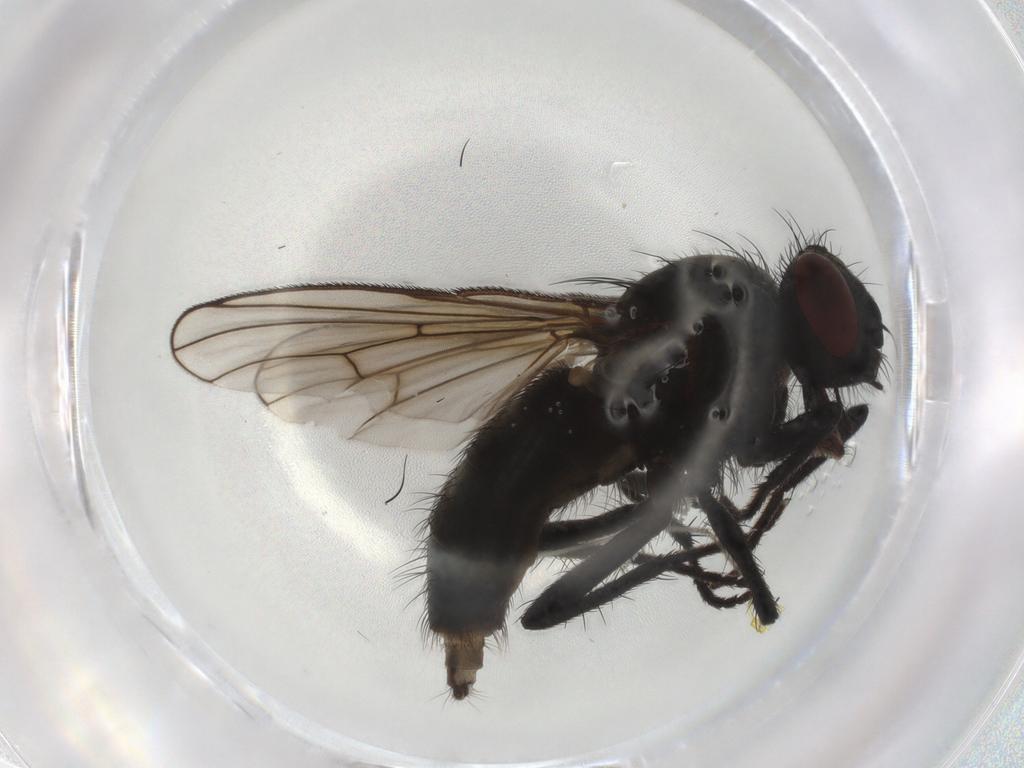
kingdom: Animalia
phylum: Arthropoda
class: Insecta
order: Diptera
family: Muscidae
